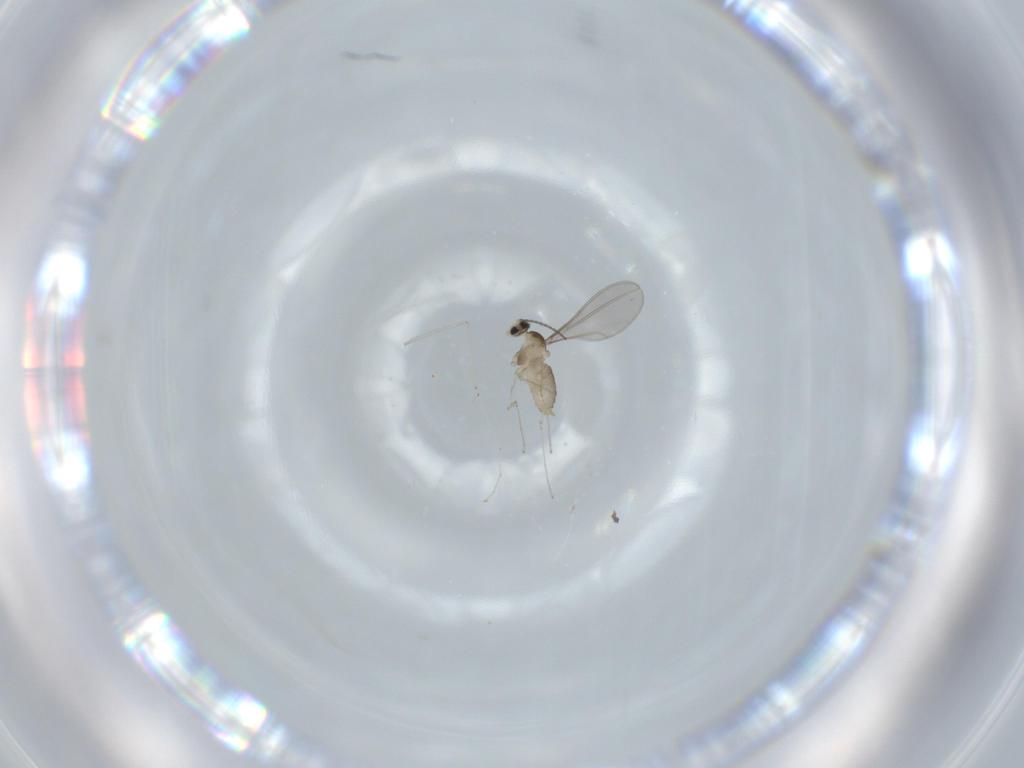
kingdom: Animalia
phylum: Arthropoda
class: Insecta
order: Diptera
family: Cecidomyiidae
